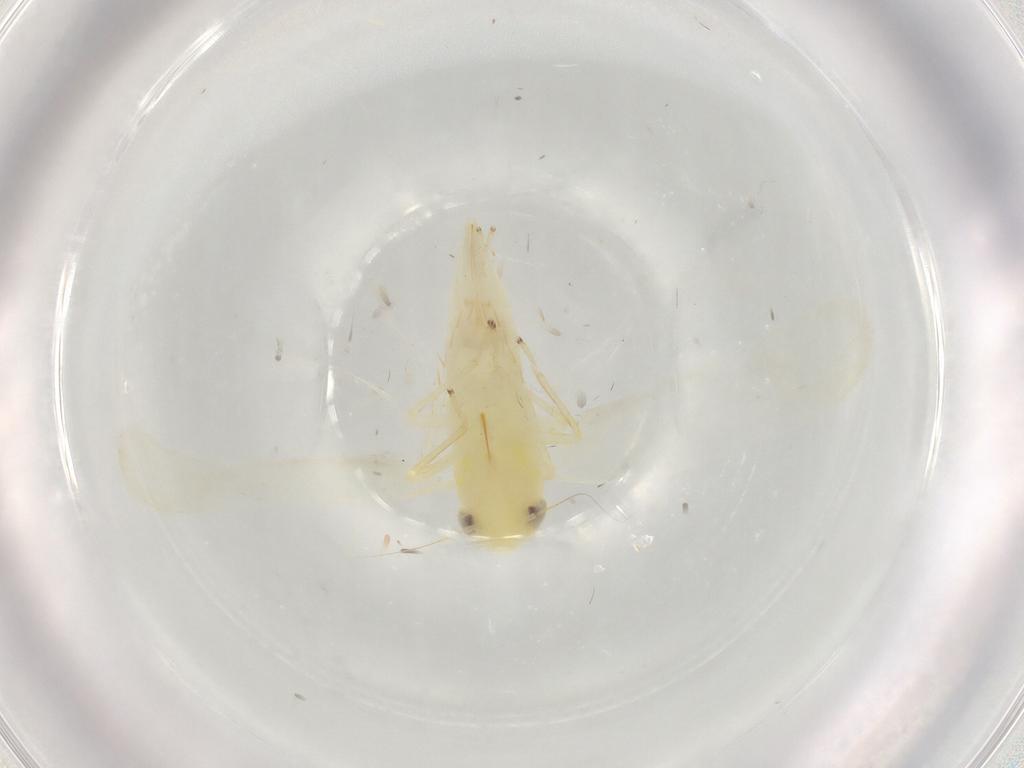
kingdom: Animalia
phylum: Arthropoda
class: Insecta
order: Hemiptera
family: Cicadellidae
